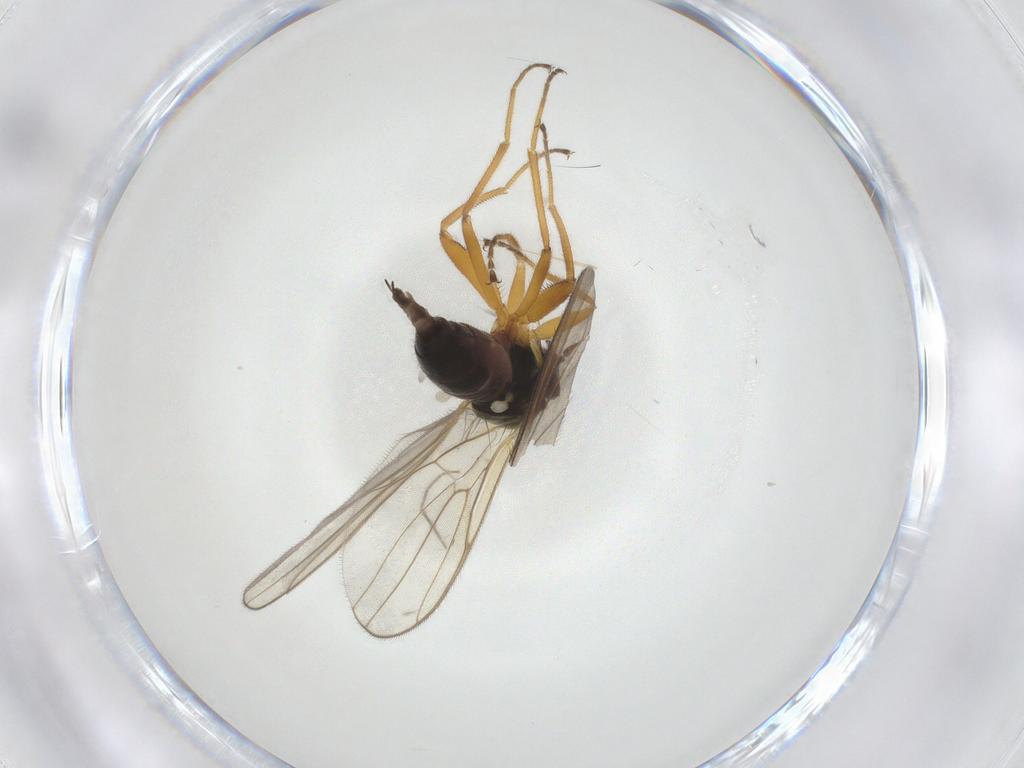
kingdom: Animalia
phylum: Arthropoda
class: Insecta
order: Diptera
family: Hybotidae
